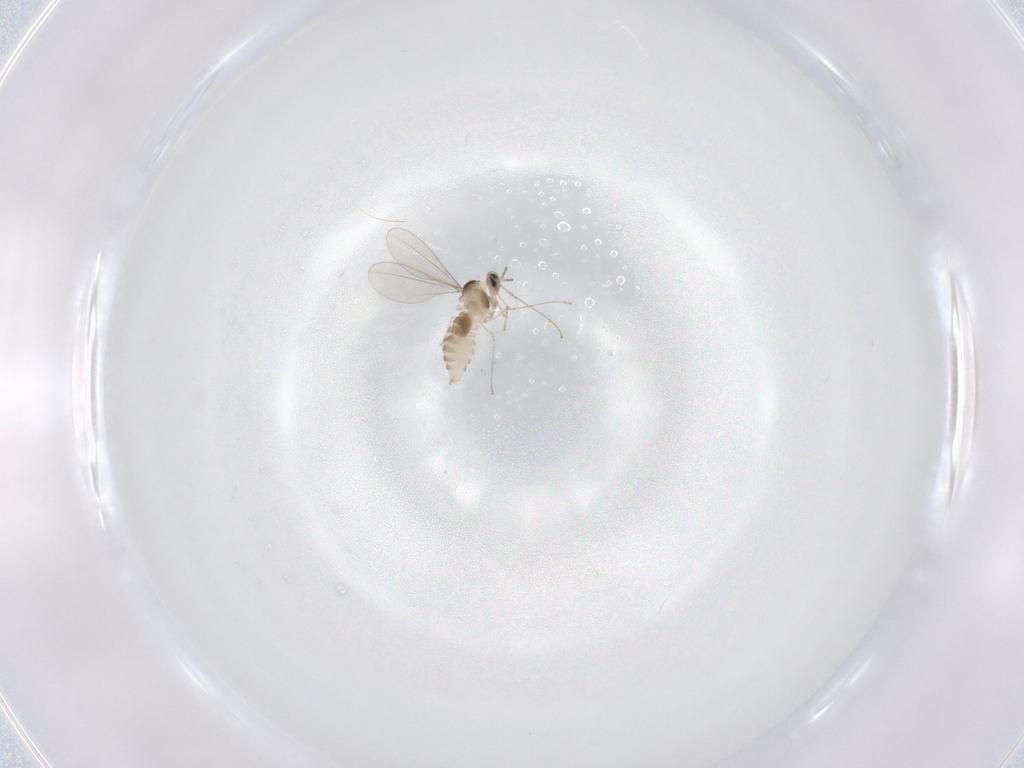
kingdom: Animalia
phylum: Arthropoda
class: Insecta
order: Diptera
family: Cecidomyiidae
